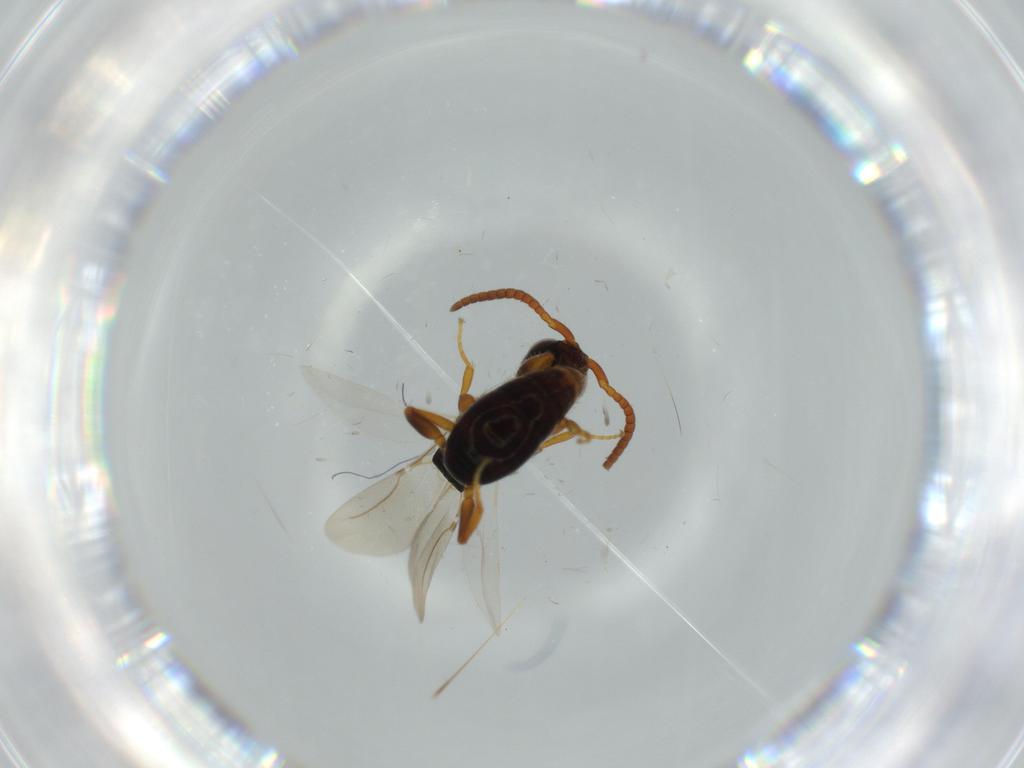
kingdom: Animalia
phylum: Arthropoda
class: Insecta
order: Hymenoptera
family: Bethylidae
